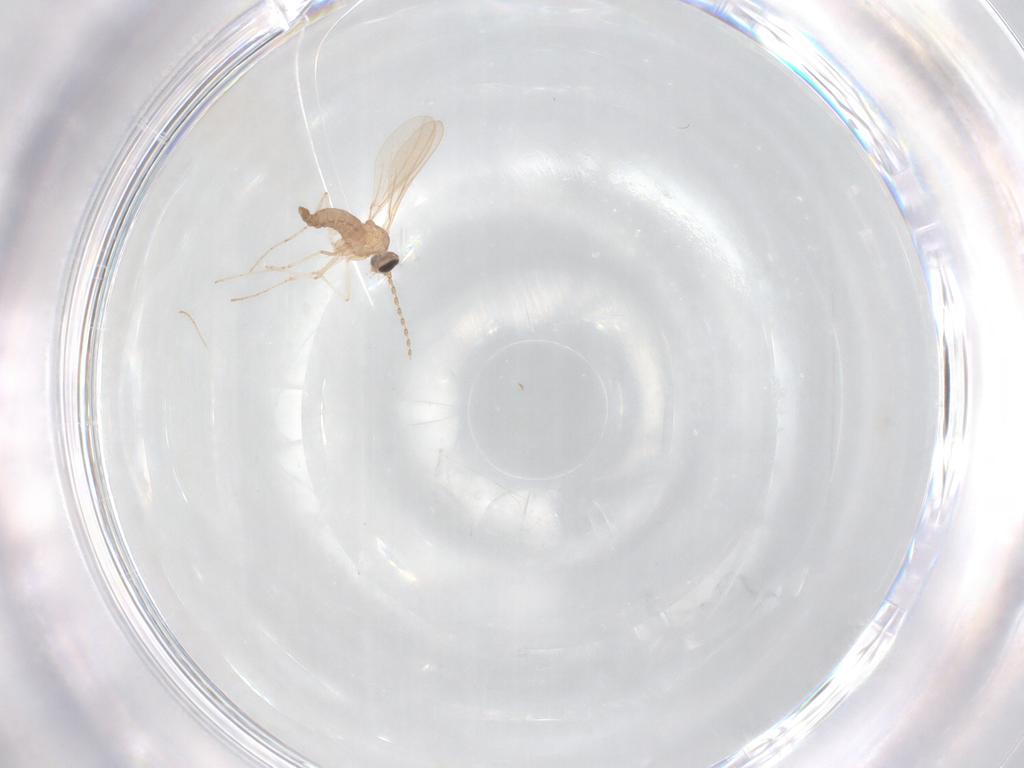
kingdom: Animalia
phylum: Arthropoda
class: Insecta
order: Diptera
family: Cecidomyiidae
